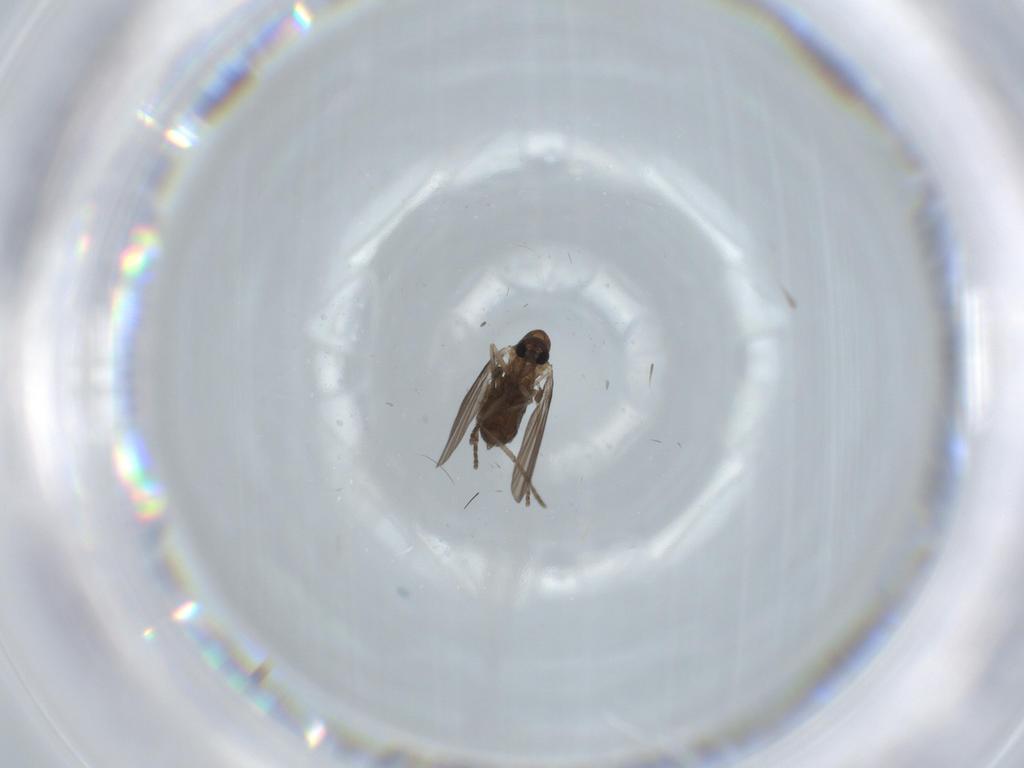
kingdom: Animalia
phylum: Arthropoda
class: Insecta
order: Diptera
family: Psychodidae
